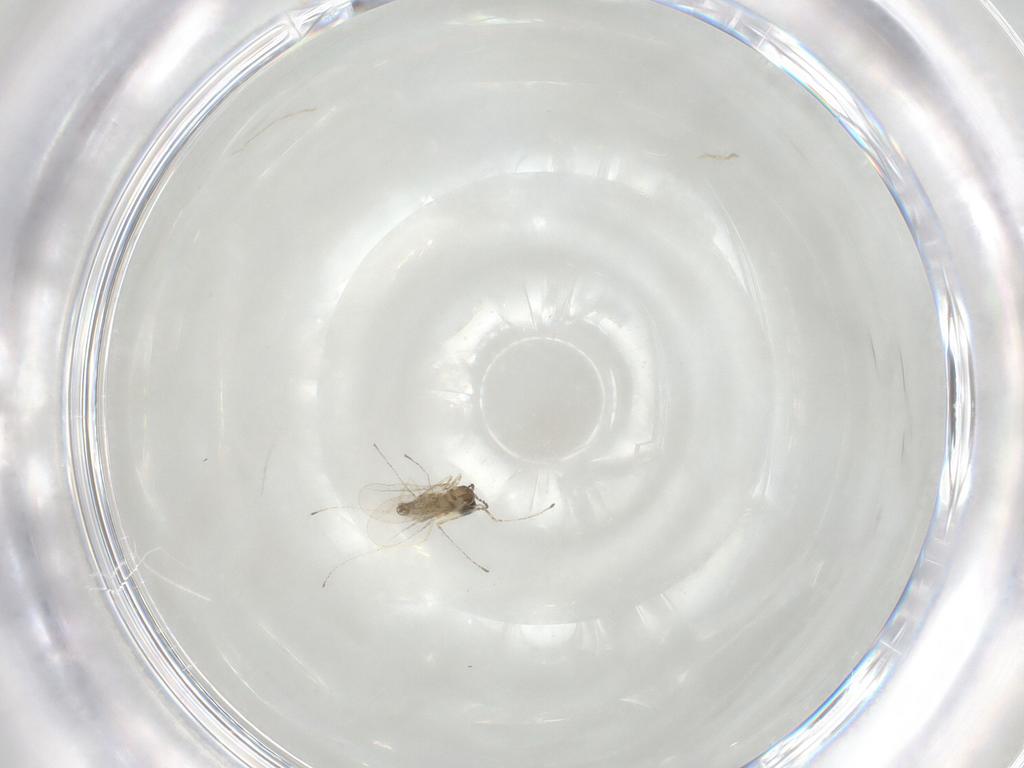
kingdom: Animalia
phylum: Arthropoda
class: Insecta
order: Diptera
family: Cecidomyiidae
